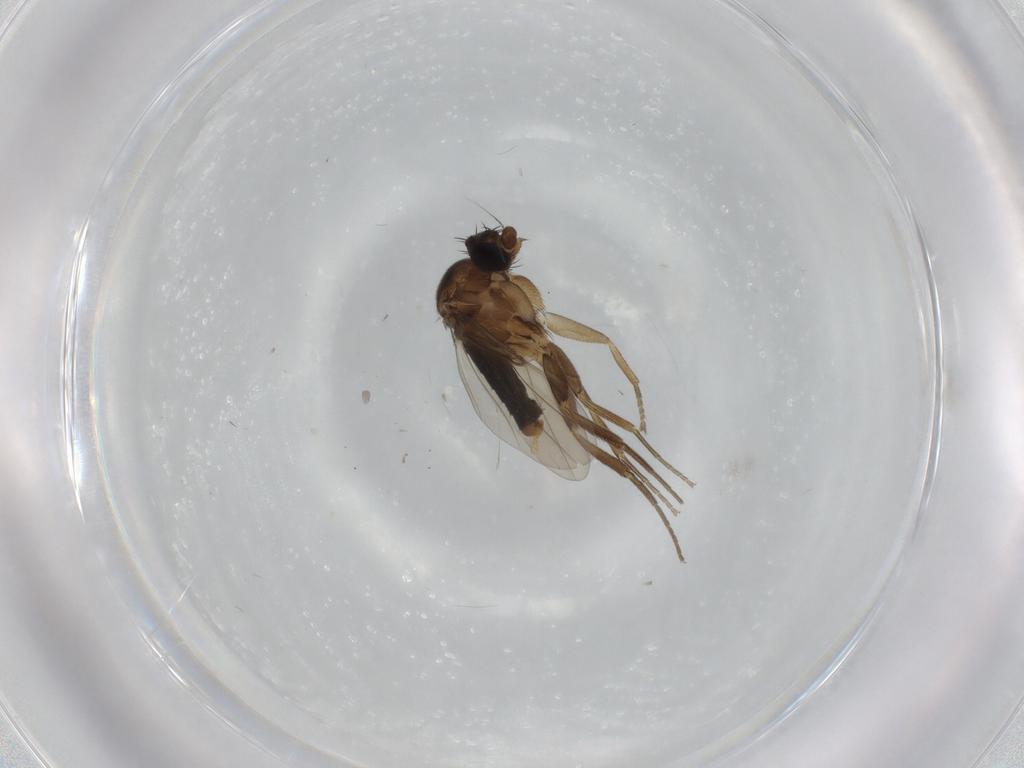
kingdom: Animalia
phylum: Arthropoda
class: Insecta
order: Diptera
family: Phoridae
